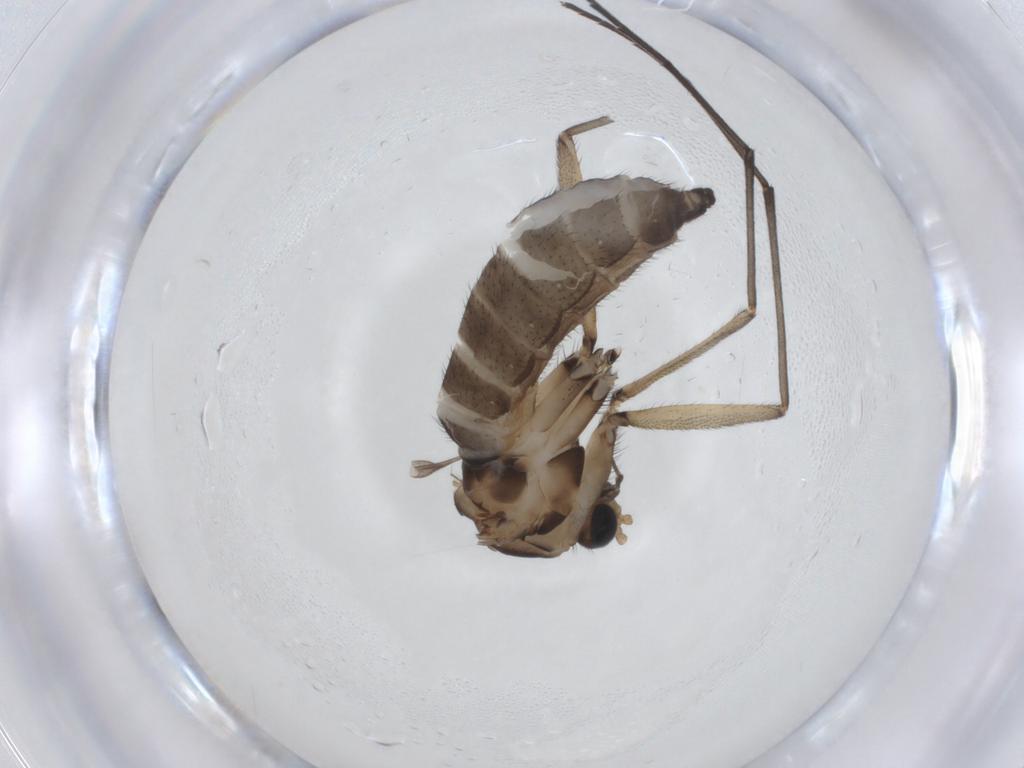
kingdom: Animalia
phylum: Arthropoda
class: Insecta
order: Diptera
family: Sciaridae
